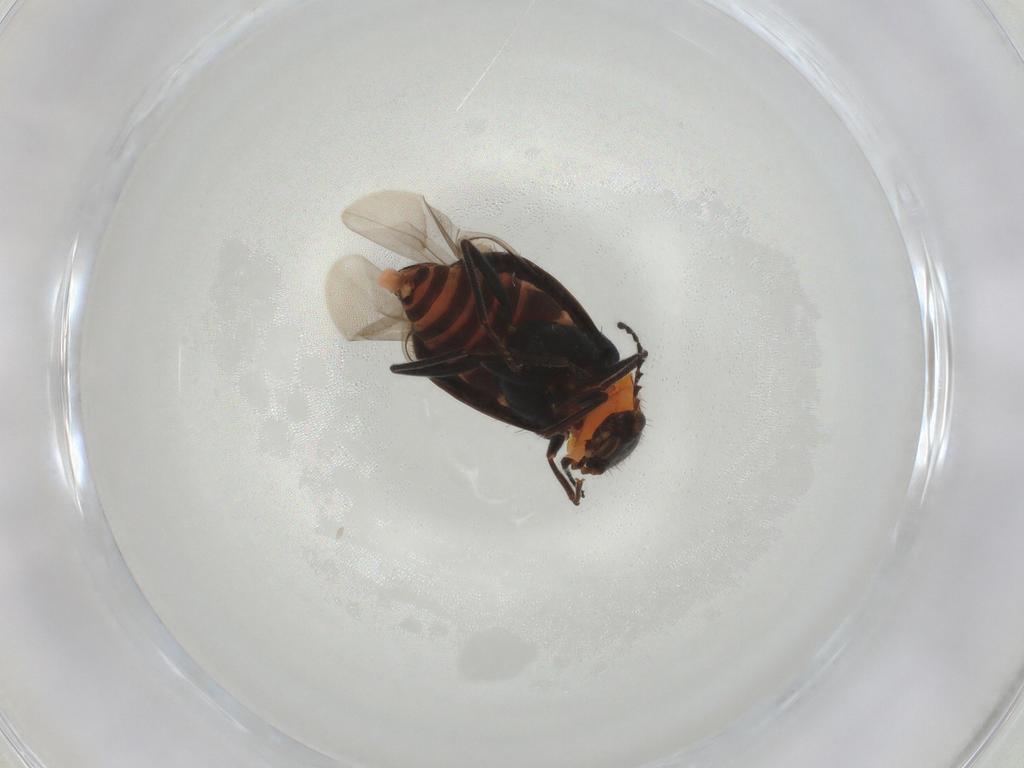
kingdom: Animalia
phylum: Arthropoda
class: Insecta
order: Coleoptera
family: Melyridae
